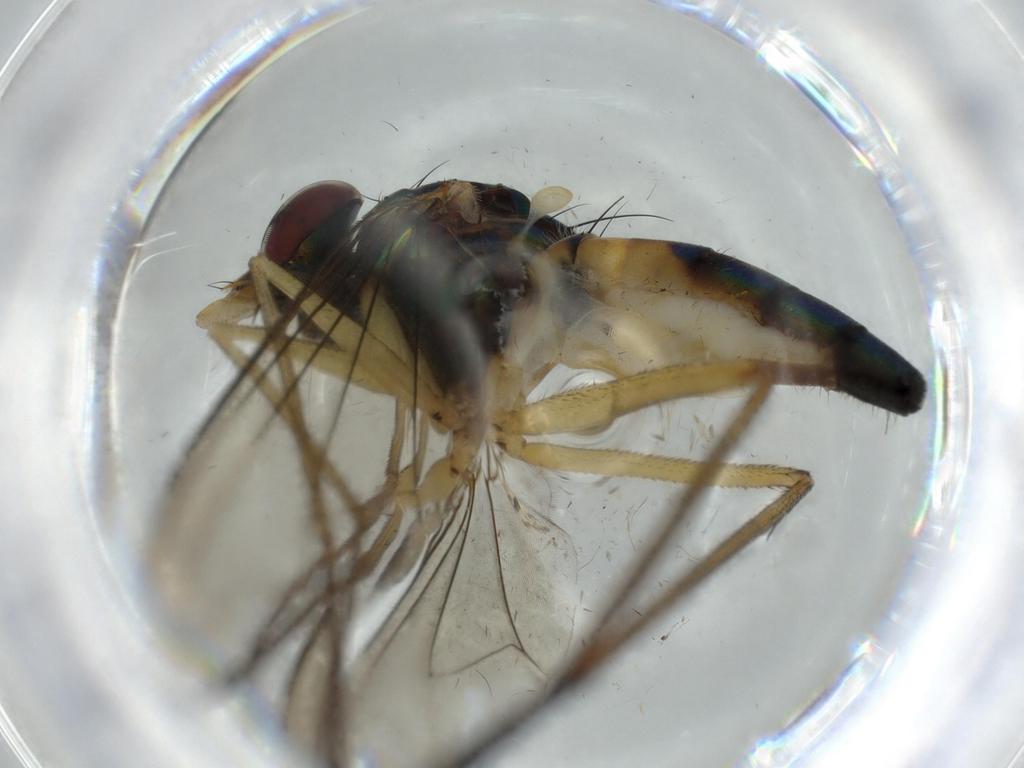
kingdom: Animalia
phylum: Arthropoda
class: Insecta
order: Diptera
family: Dolichopodidae
